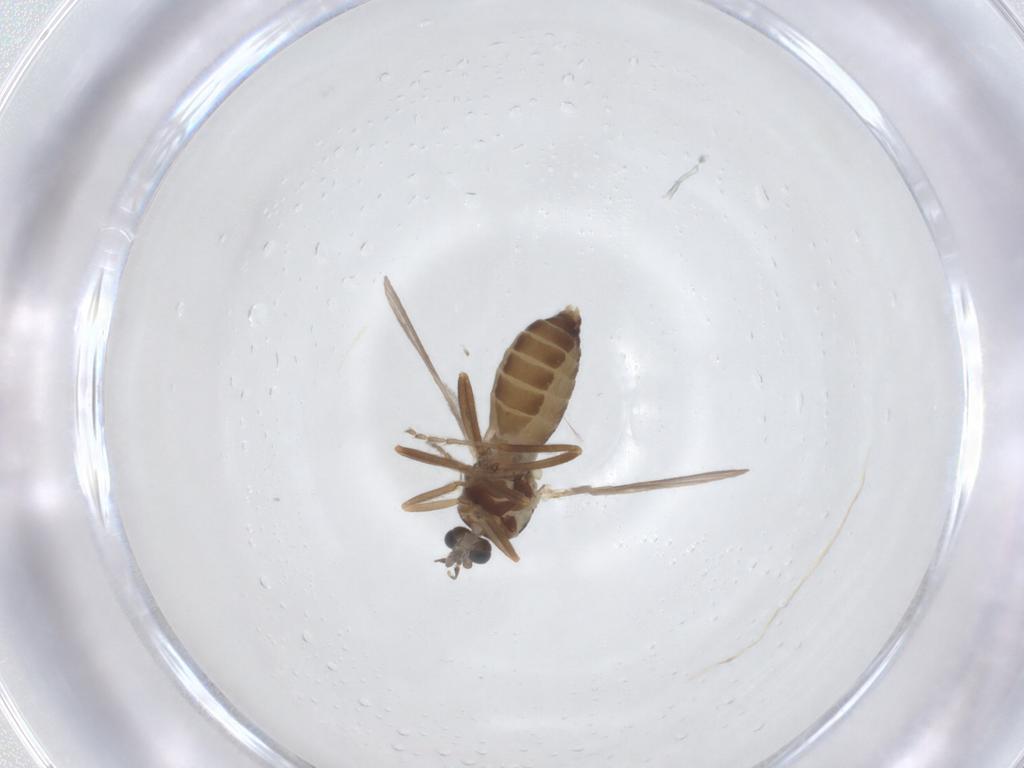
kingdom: Animalia
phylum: Arthropoda
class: Insecta
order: Diptera
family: Ceratopogonidae
